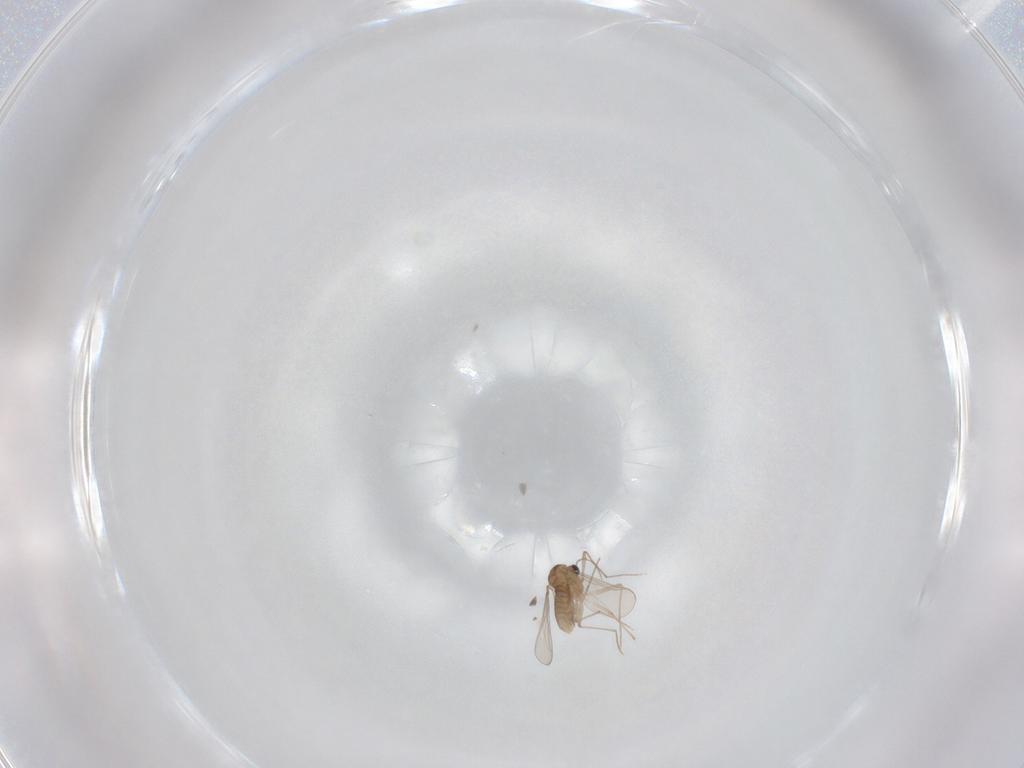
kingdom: Animalia
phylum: Arthropoda
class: Insecta
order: Diptera
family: Chironomidae
